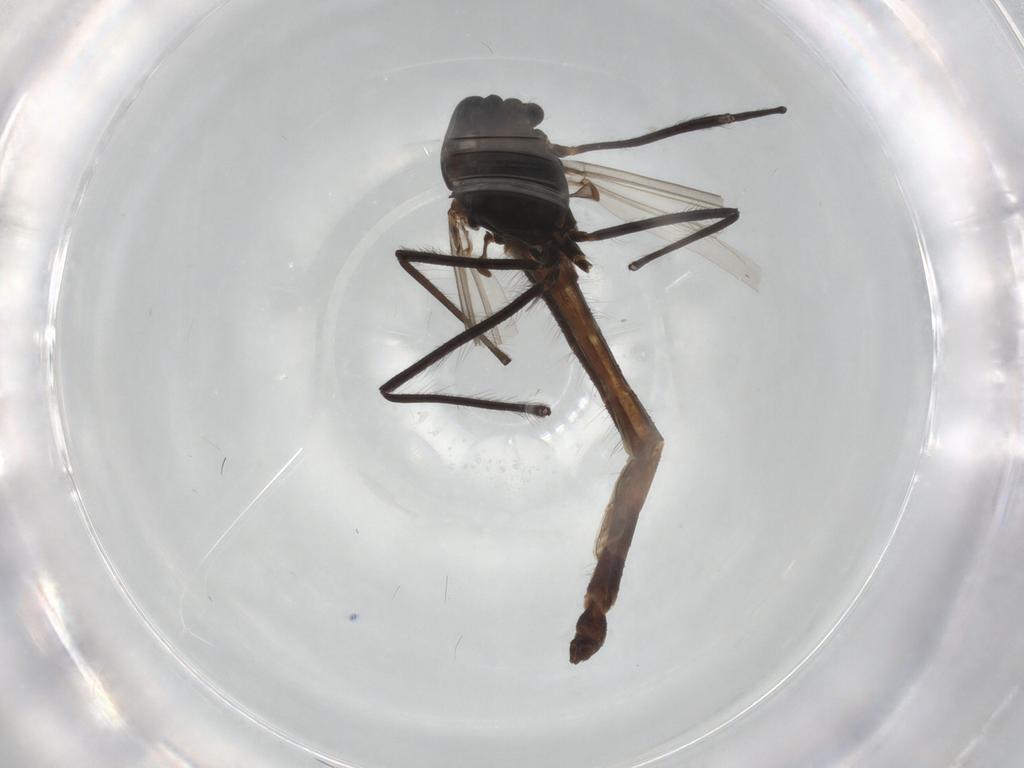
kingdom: Animalia
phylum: Arthropoda
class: Insecta
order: Diptera
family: Chironomidae
